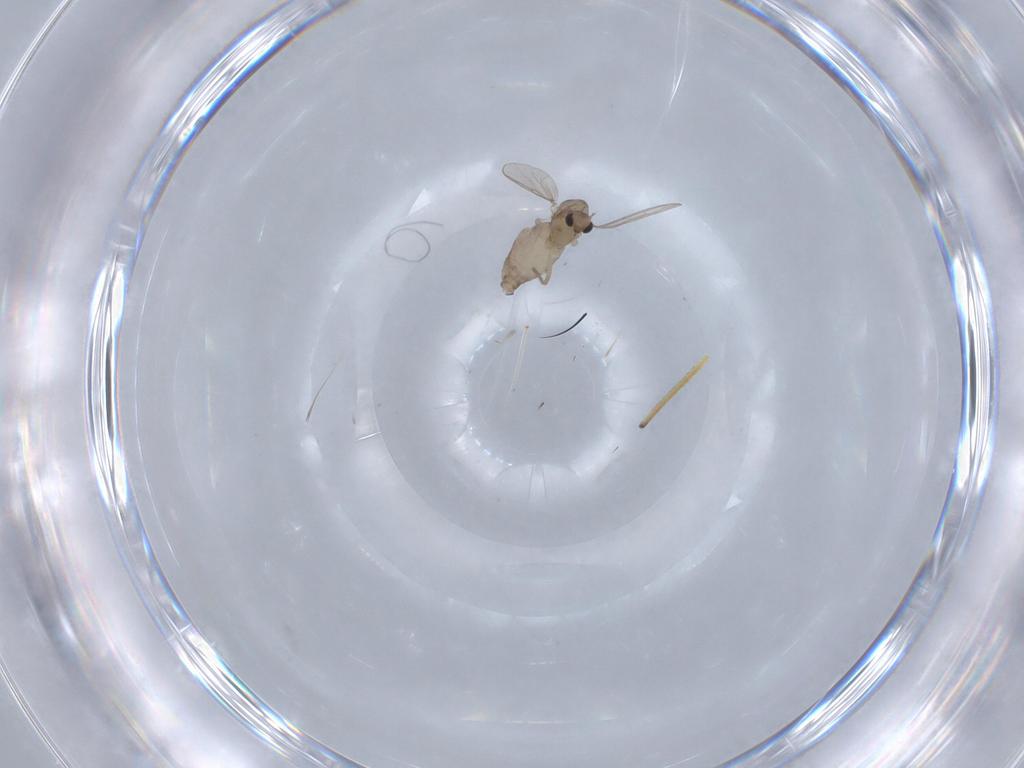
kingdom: Animalia
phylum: Arthropoda
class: Insecta
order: Diptera
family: Phoridae
